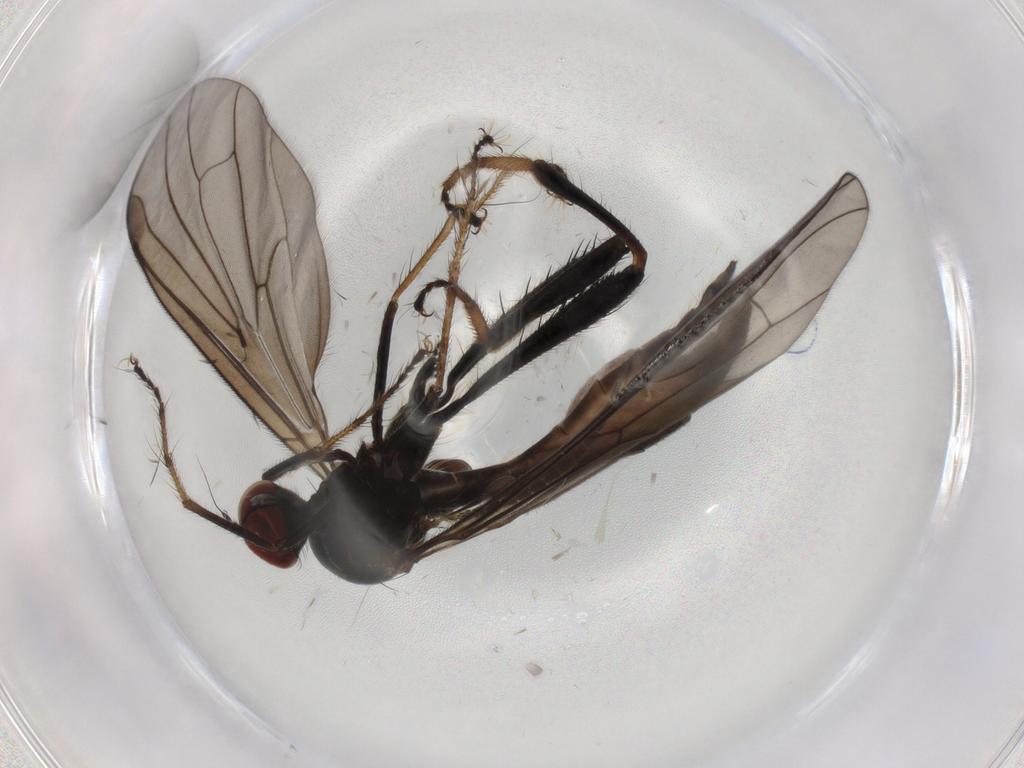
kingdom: Animalia
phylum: Arthropoda
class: Insecta
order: Diptera
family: Hybotidae
